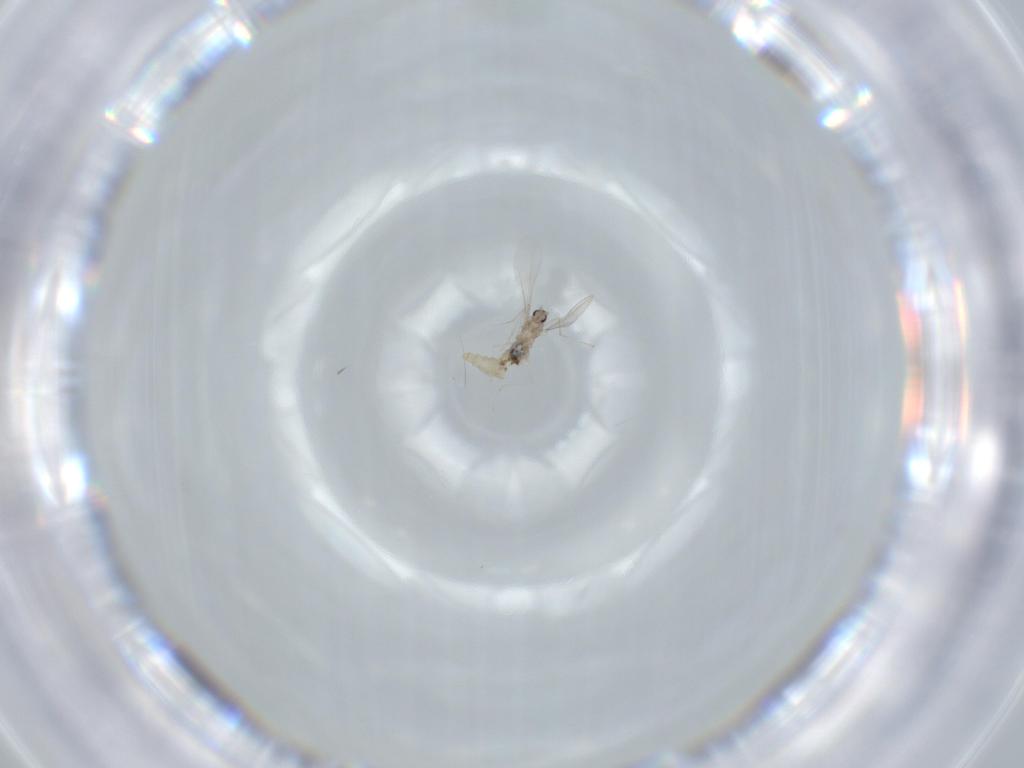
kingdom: Animalia
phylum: Arthropoda
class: Insecta
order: Diptera
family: Cecidomyiidae
